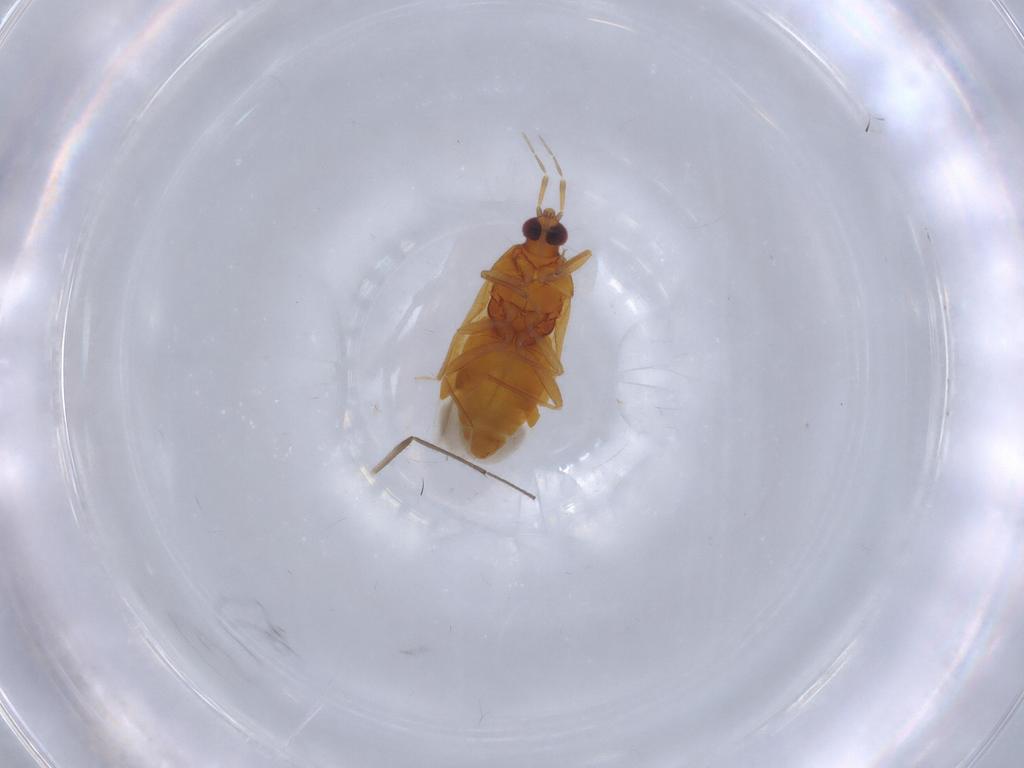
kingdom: Animalia
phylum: Arthropoda
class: Insecta
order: Hemiptera
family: Anthocoridae
